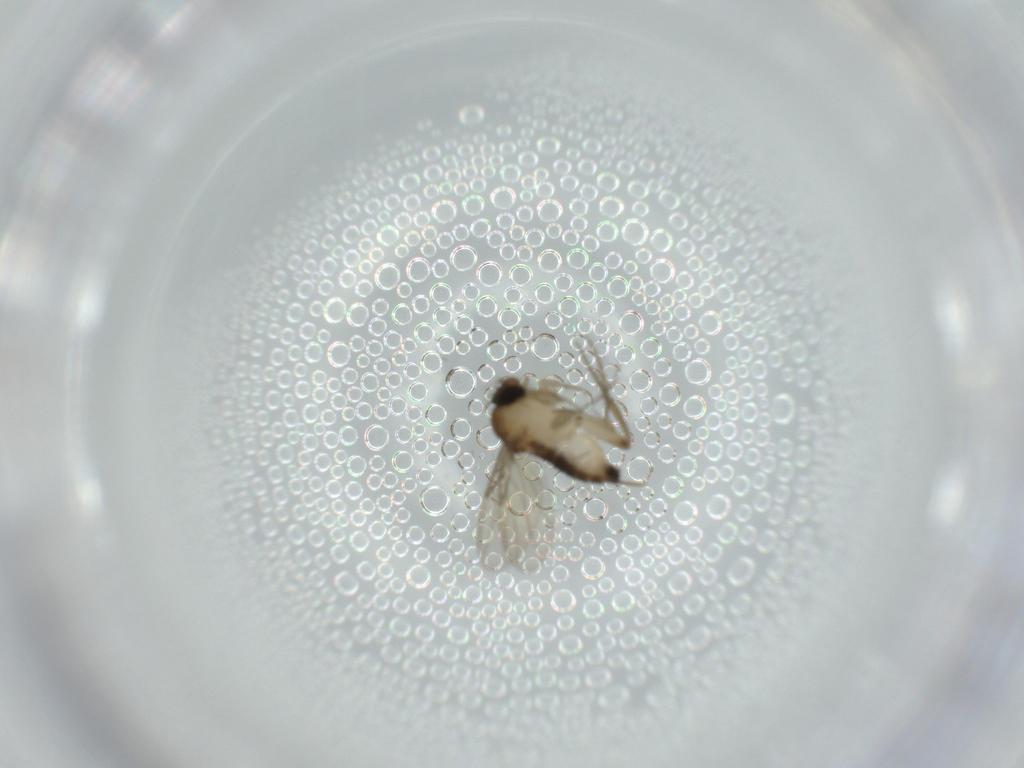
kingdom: Animalia
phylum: Arthropoda
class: Insecta
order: Diptera
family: Phoridae
